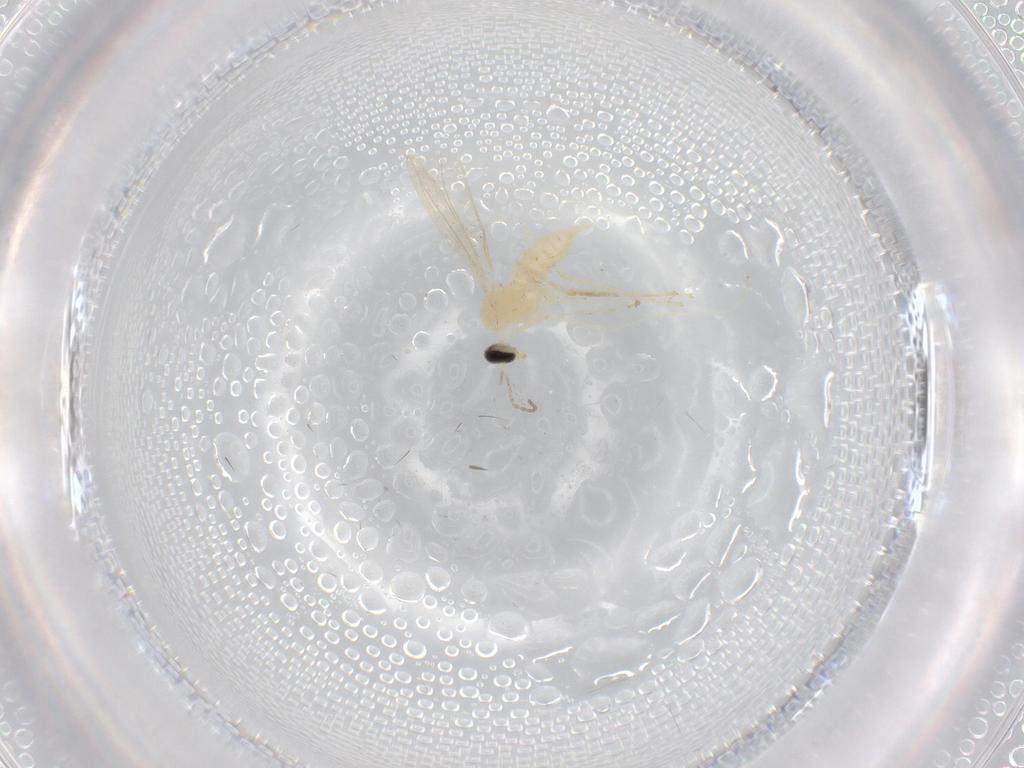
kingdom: Animalia
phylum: Arthropoda
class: Insecta
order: Diptera
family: Cecidomyiidae
